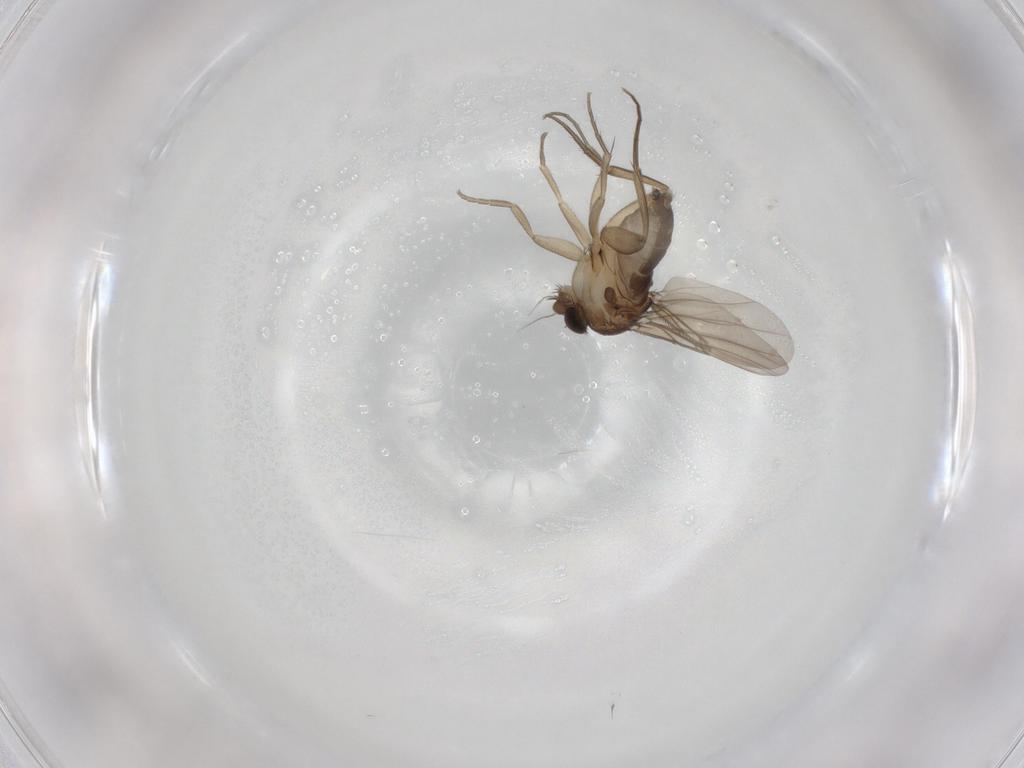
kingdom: Animalia
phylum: Arthropoda
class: Insecta
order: Diptera
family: Phoridae
